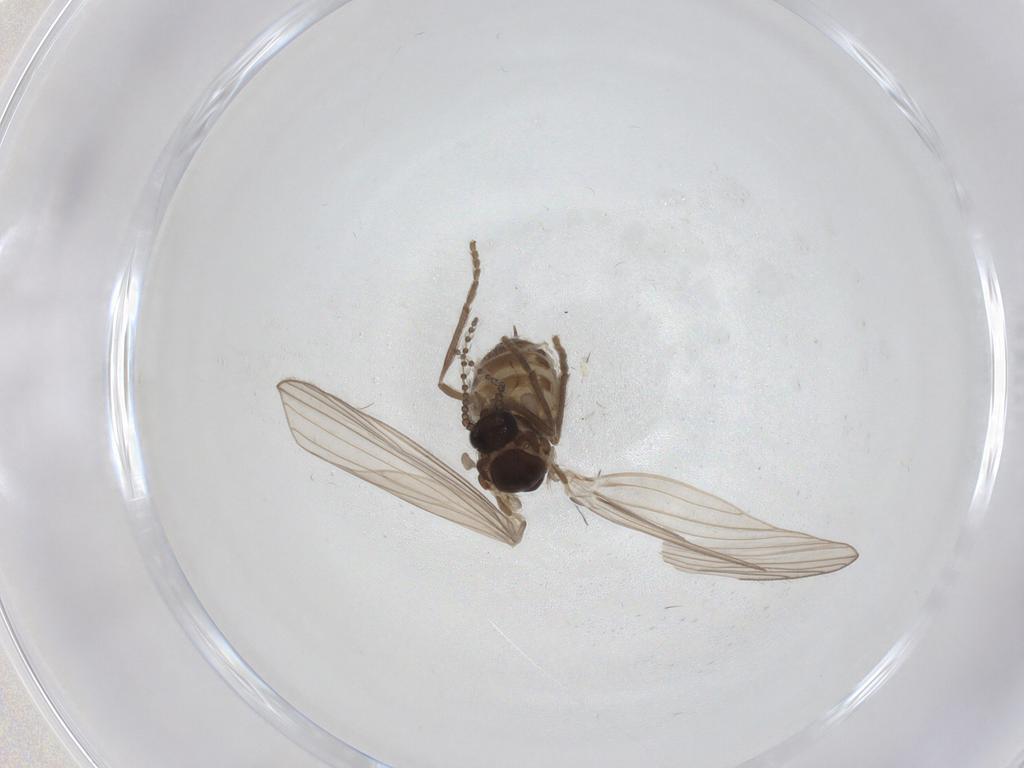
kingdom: Animalia
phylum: Arthropoda
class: Insecta
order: Diptera
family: Psychodidae
